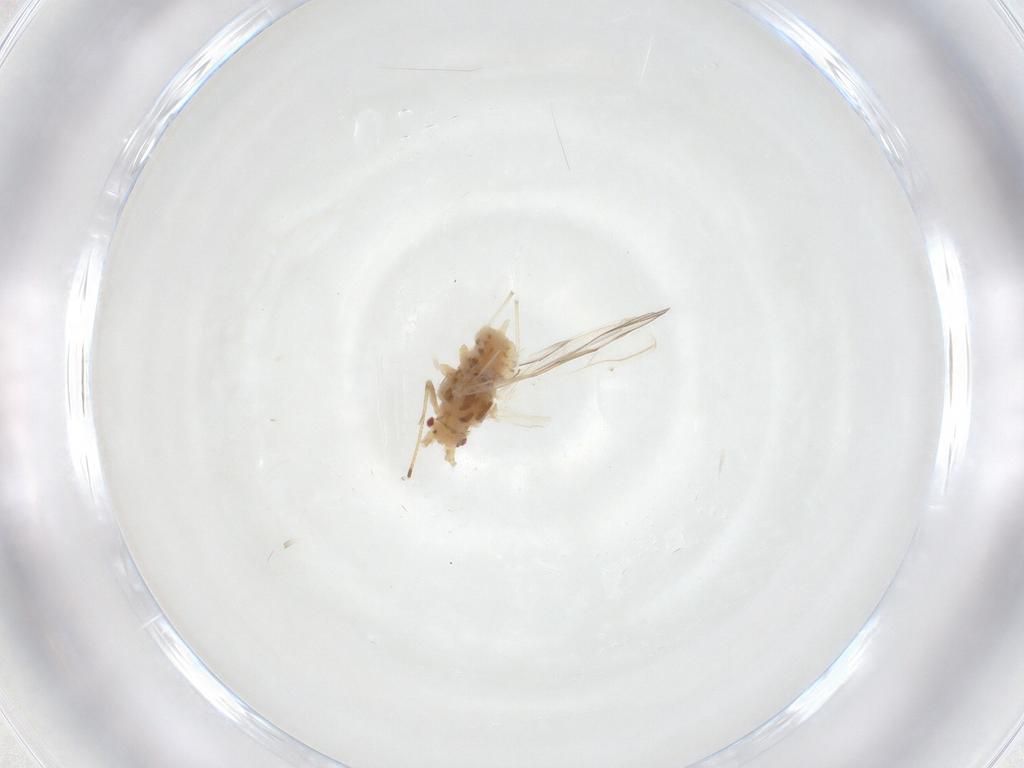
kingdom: Animalia
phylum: Arthropoda
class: Insecta
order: Hemiptera
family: Aphididae
